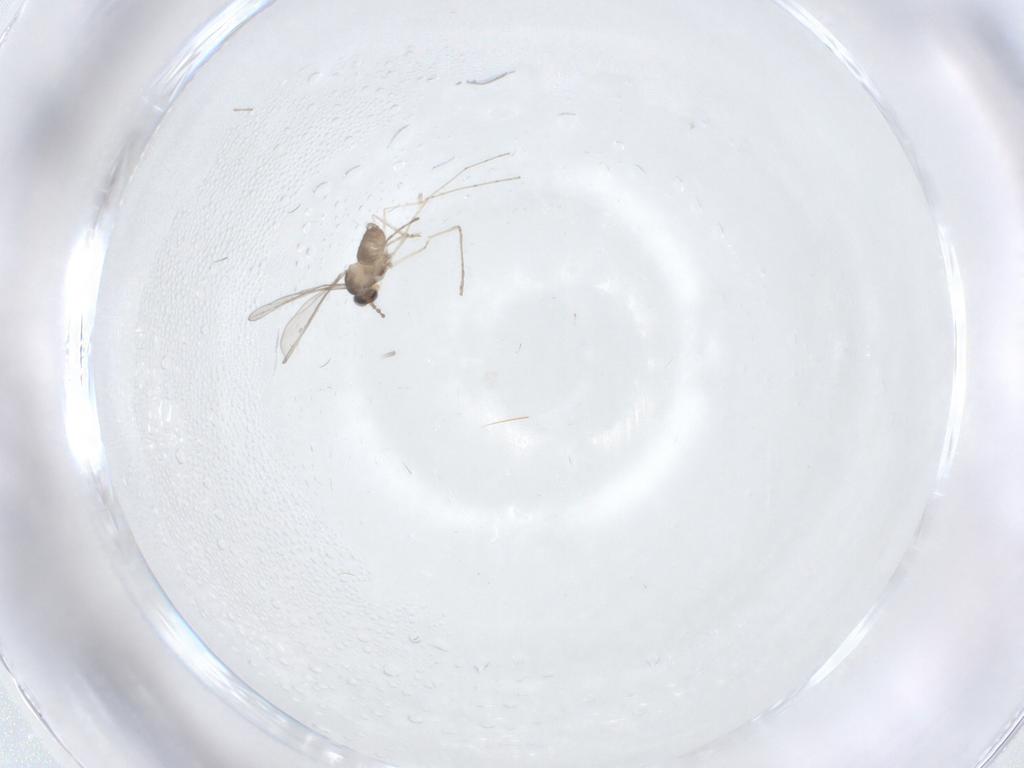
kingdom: Animalia
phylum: Arthropoda
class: Insecta
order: Diptera
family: Cecidomyiidae
